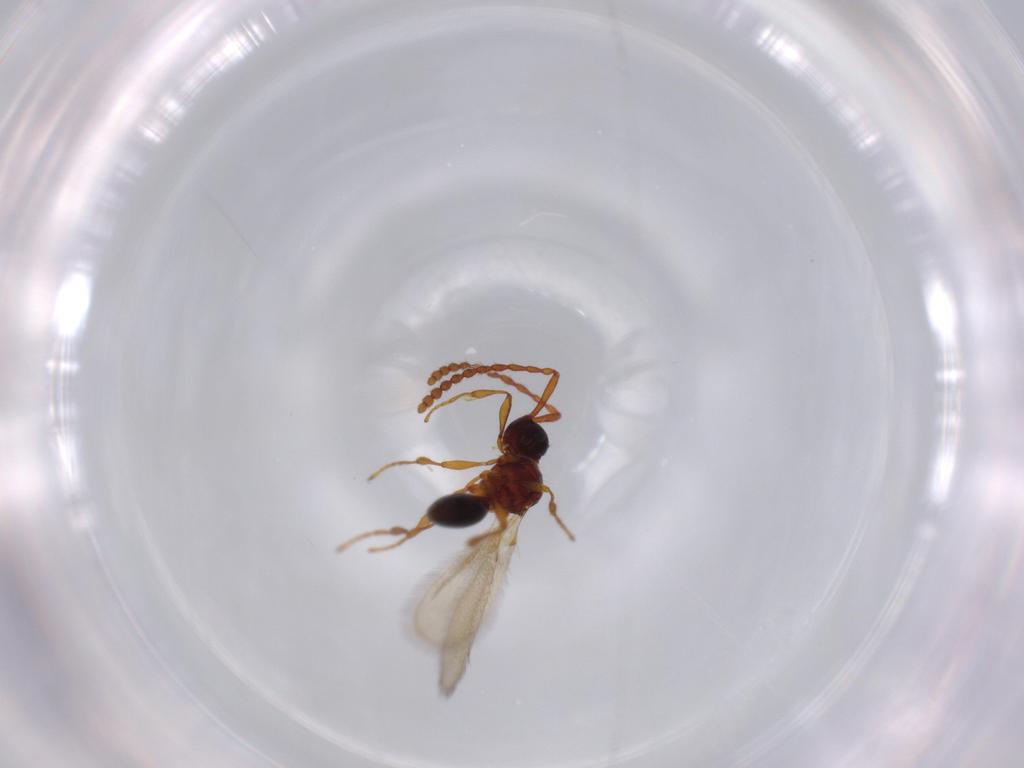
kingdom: Animalia
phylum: Arthropoda
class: Insecta
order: Hymenoptera
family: Diapriidae
